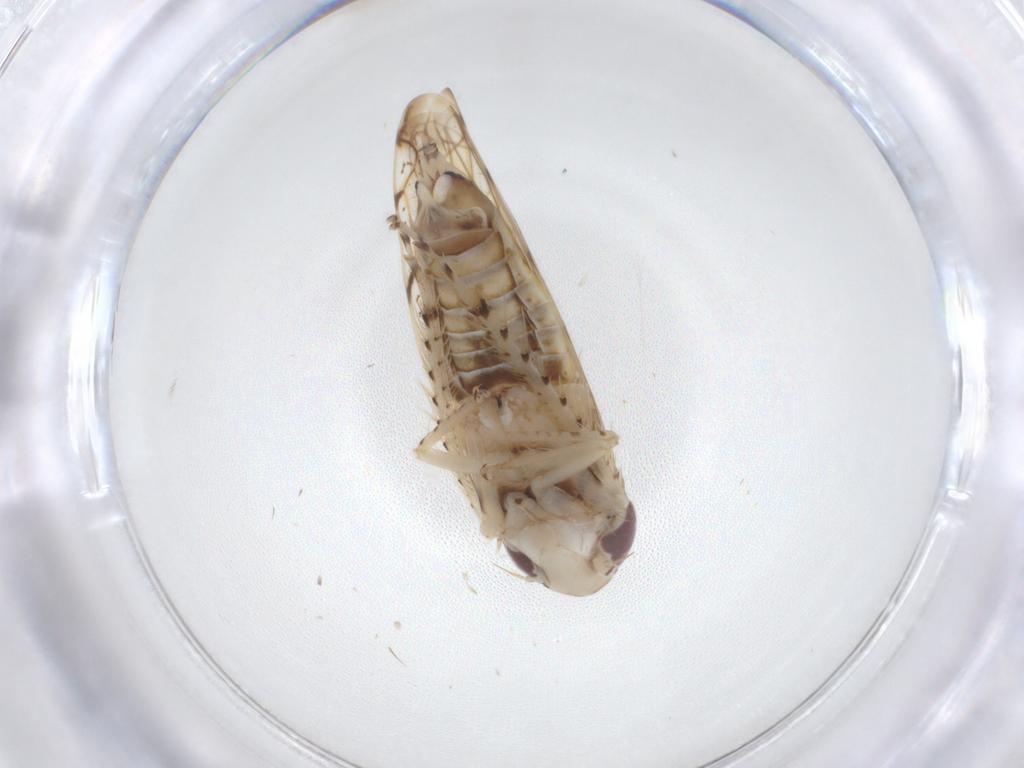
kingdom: Animalia
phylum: Arthropoda
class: Insecta
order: Hemiptera
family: Cicadellidae
